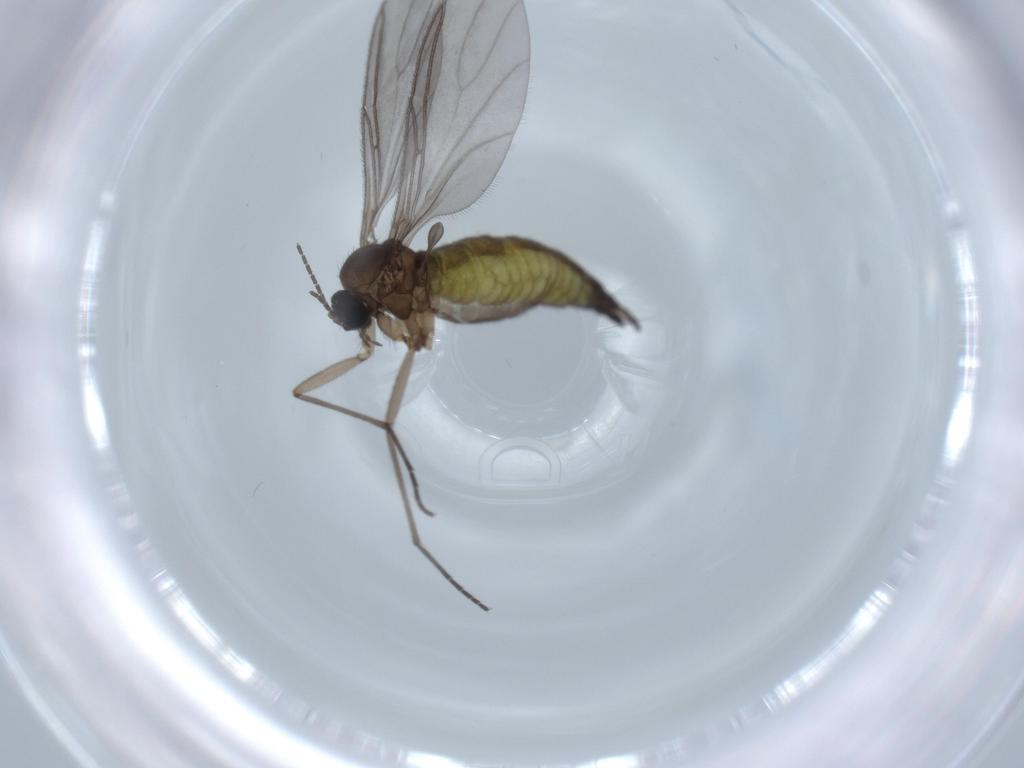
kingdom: Animalia
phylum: Arthropoda
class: Insecta
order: Diptera
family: Sciaridae
